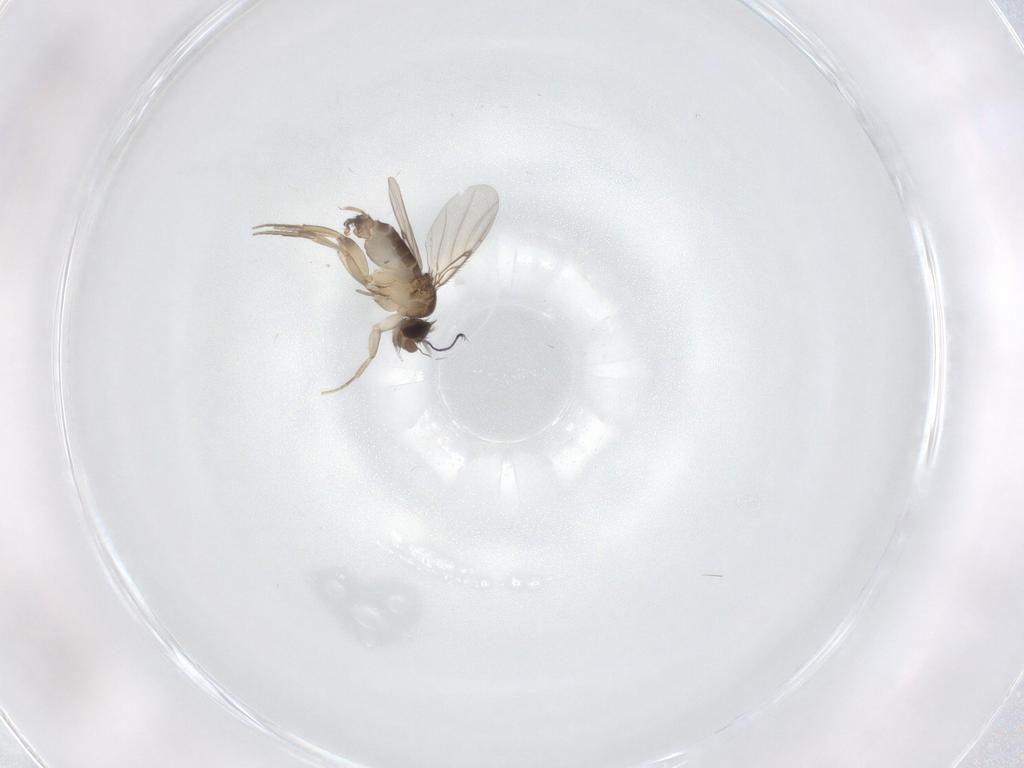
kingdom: Animalia
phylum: Arthropoda
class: Insecta
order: Diptera
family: Phoridae
